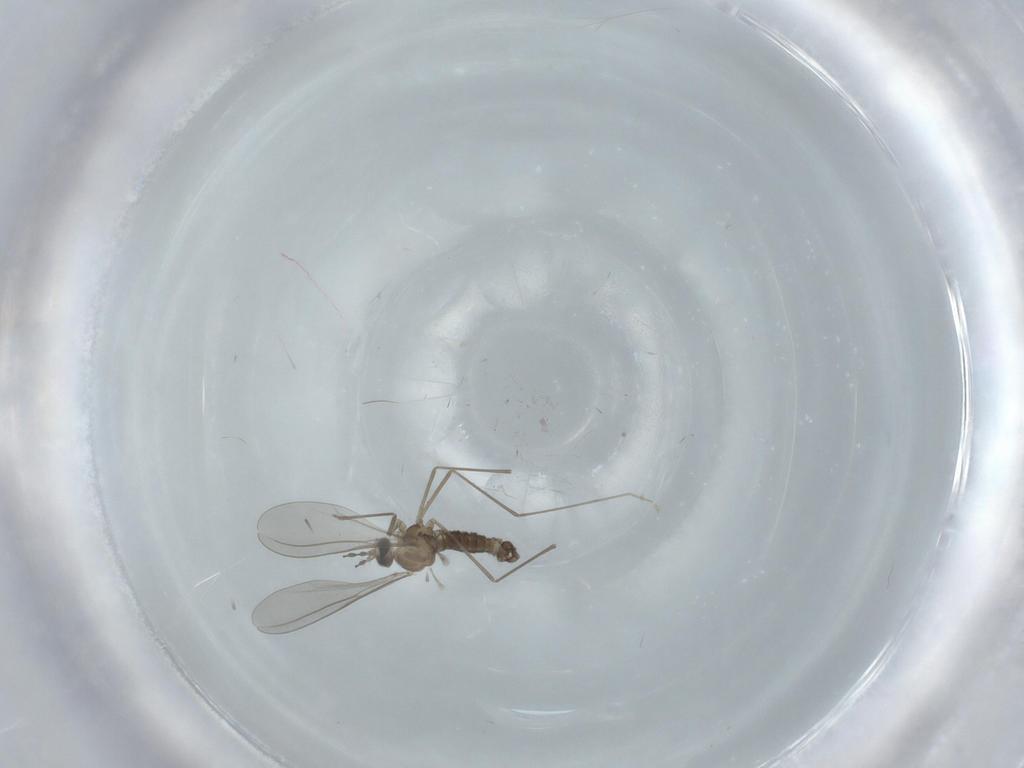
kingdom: Animalia
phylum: Arthropoda
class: Insecta
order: Diptera
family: Cecidomyiidae
